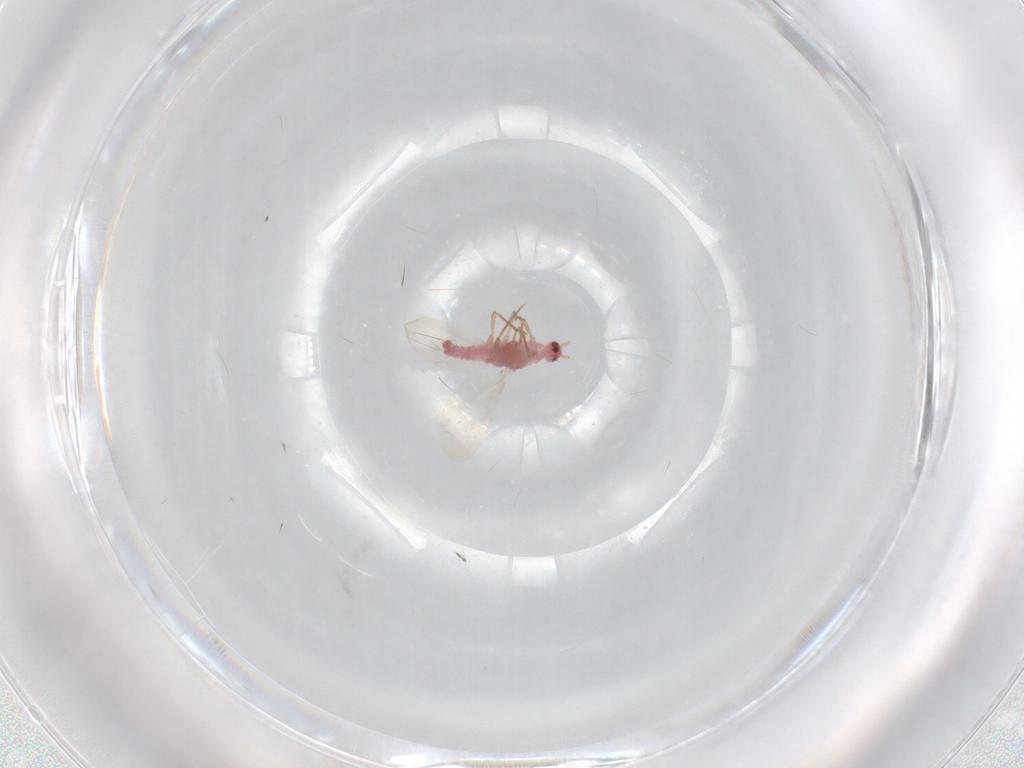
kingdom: Animalia
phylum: Arthropoda
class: Insecta
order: Diptera
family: Chironomidae
